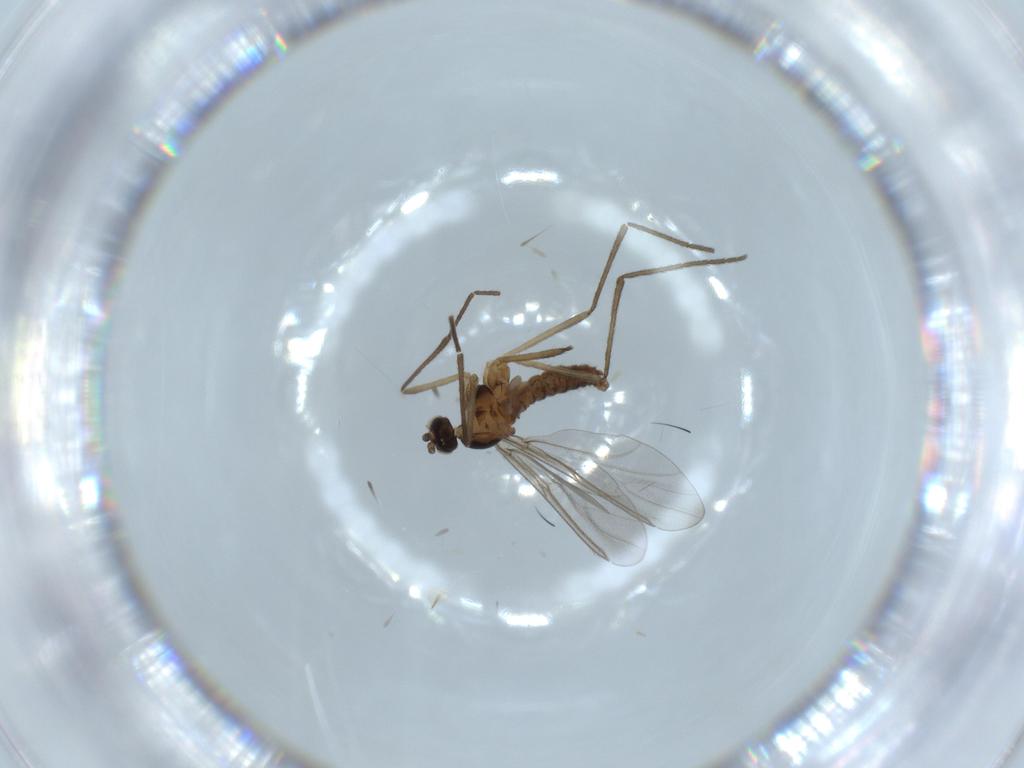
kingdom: Animalia
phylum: Arthropoda
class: Insecta
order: Diptera
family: Cecidomyiidae
